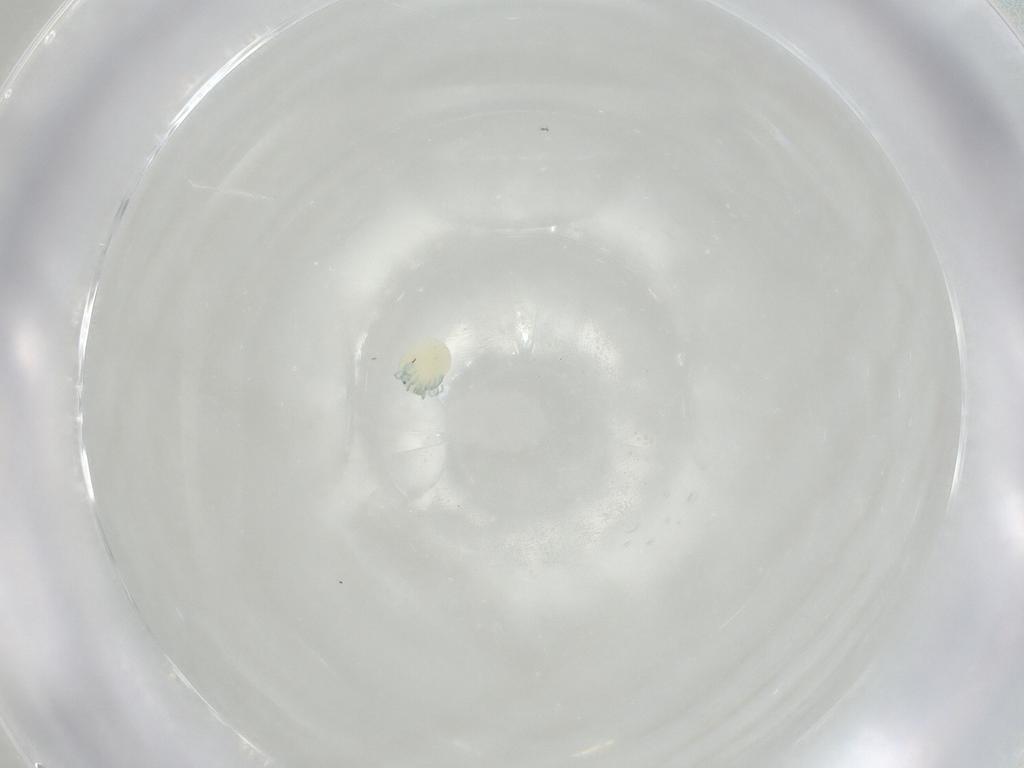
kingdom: Animalia
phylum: Arthropoda
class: Arachnida
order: Trombidiformes
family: Arrenuridae
